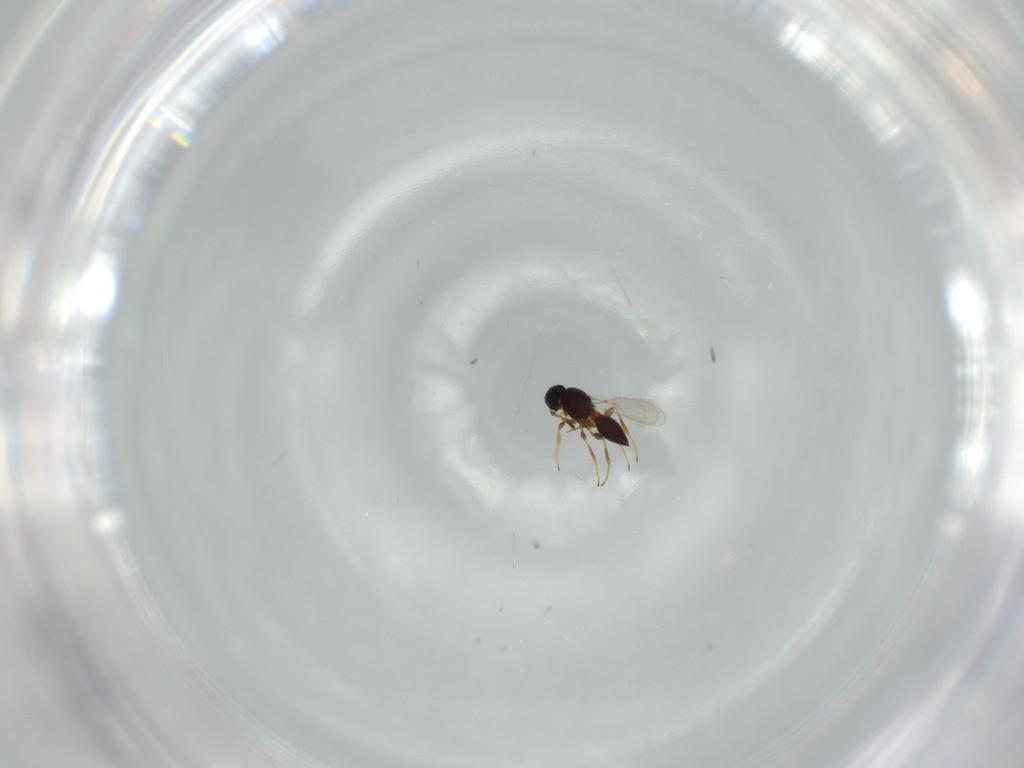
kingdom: Animalia
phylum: Arthropoda
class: Insecta
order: Hymenoptera
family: Platygastridae
